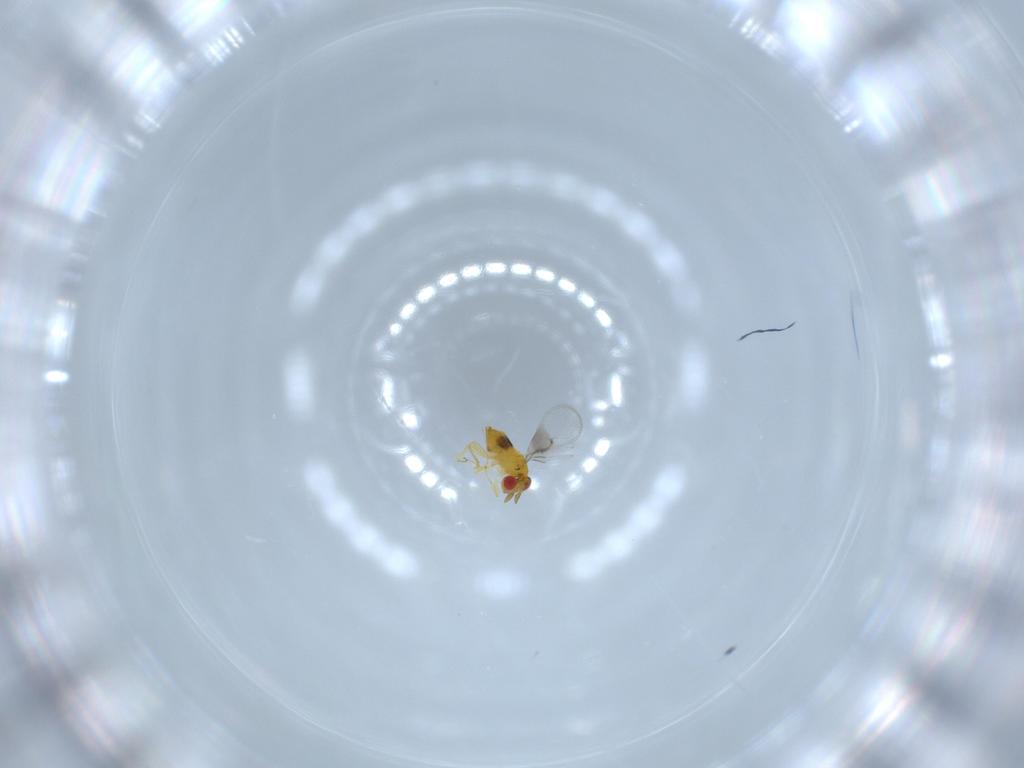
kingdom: Animalia
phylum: Arthropoda
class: Insecta
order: Hymenoptera
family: Trichogrammatidae
